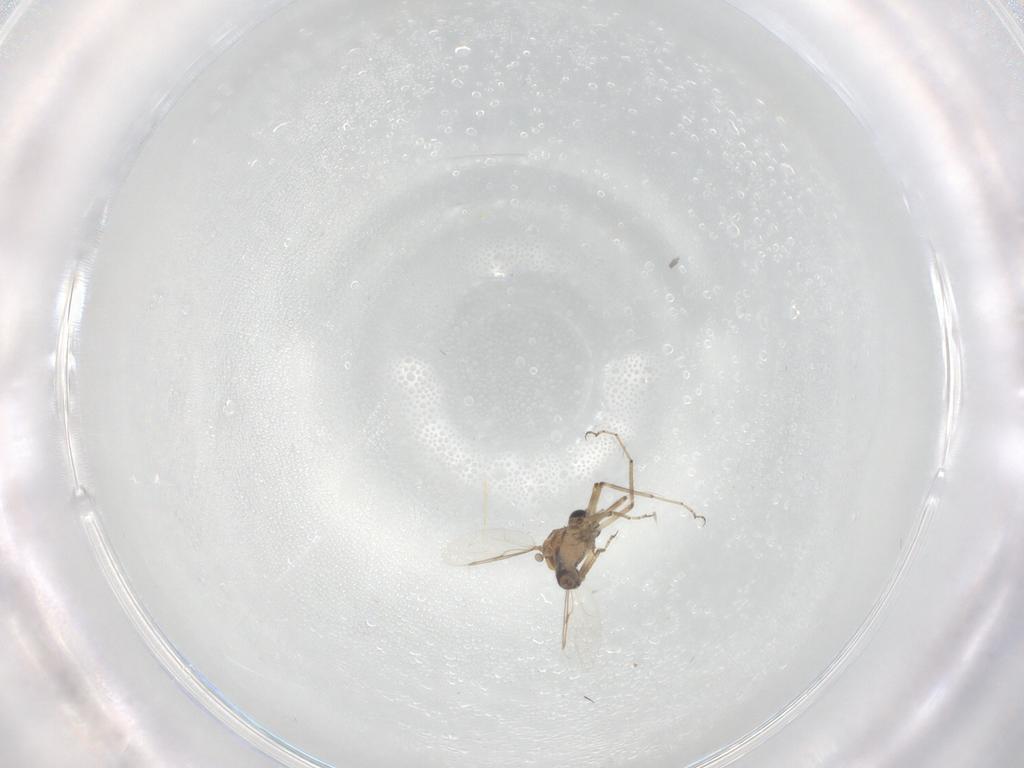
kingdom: Animalia
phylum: Arthropoda
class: Insecta
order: Diptera
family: Ceratopogonidae
